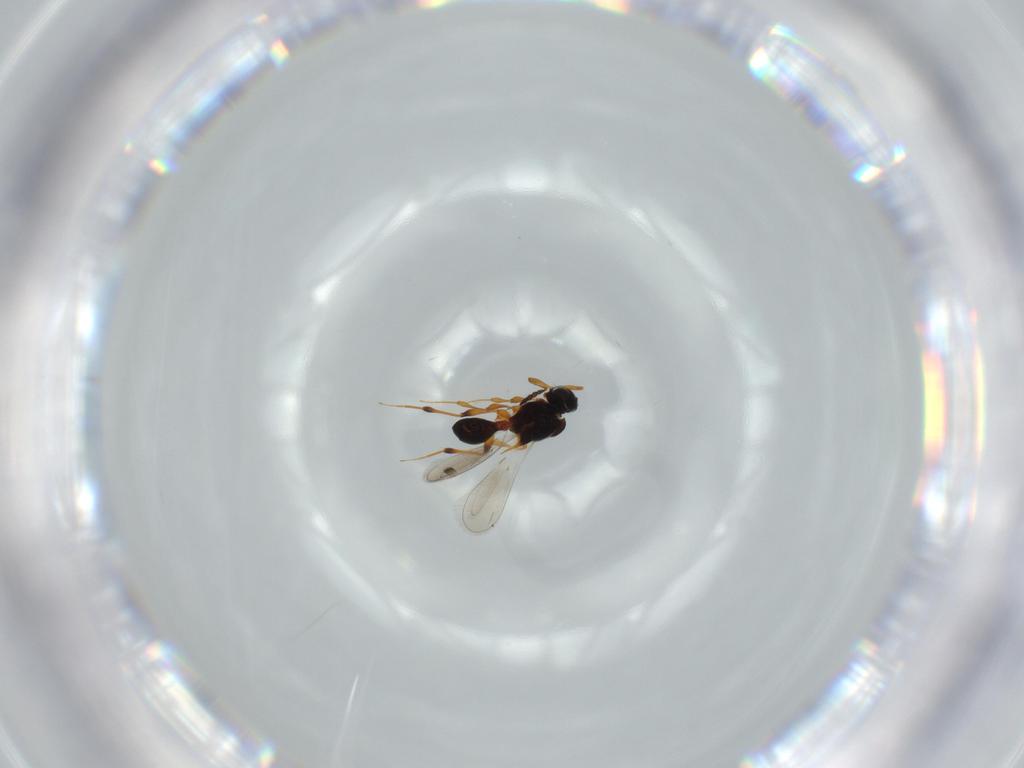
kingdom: Animalia
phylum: Arthropoda
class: Insecta
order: Hymenoptera
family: Platygastridae
